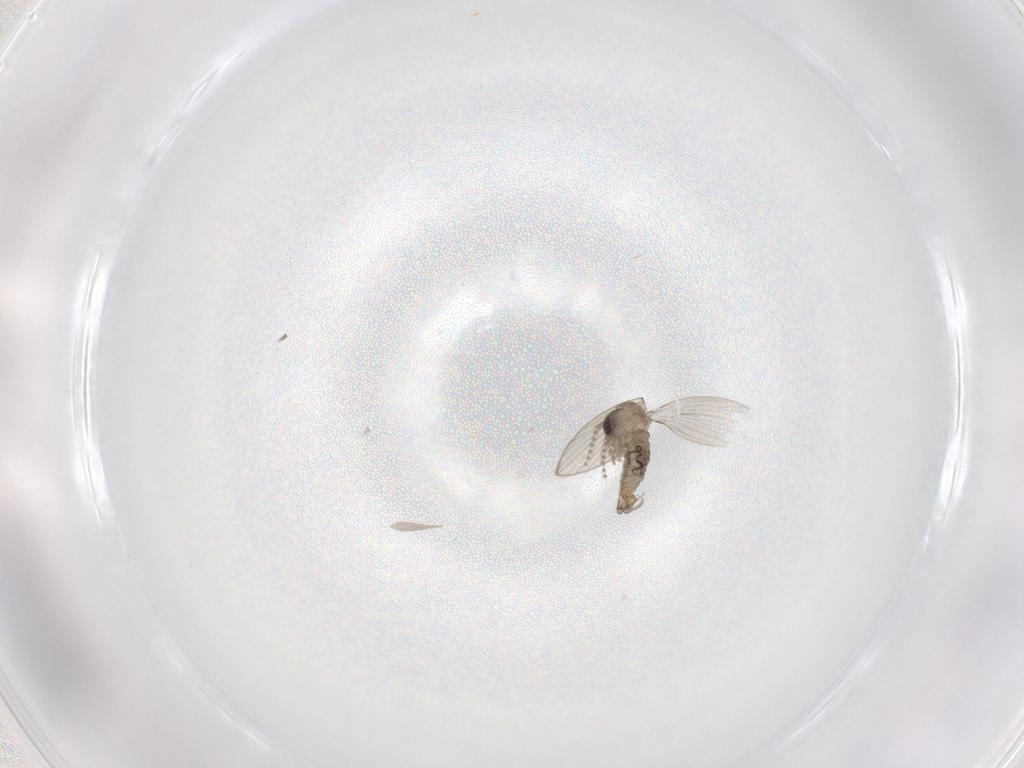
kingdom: Animalia
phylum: Arthropoda
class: Insecta
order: Diptera
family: Psychodidae
